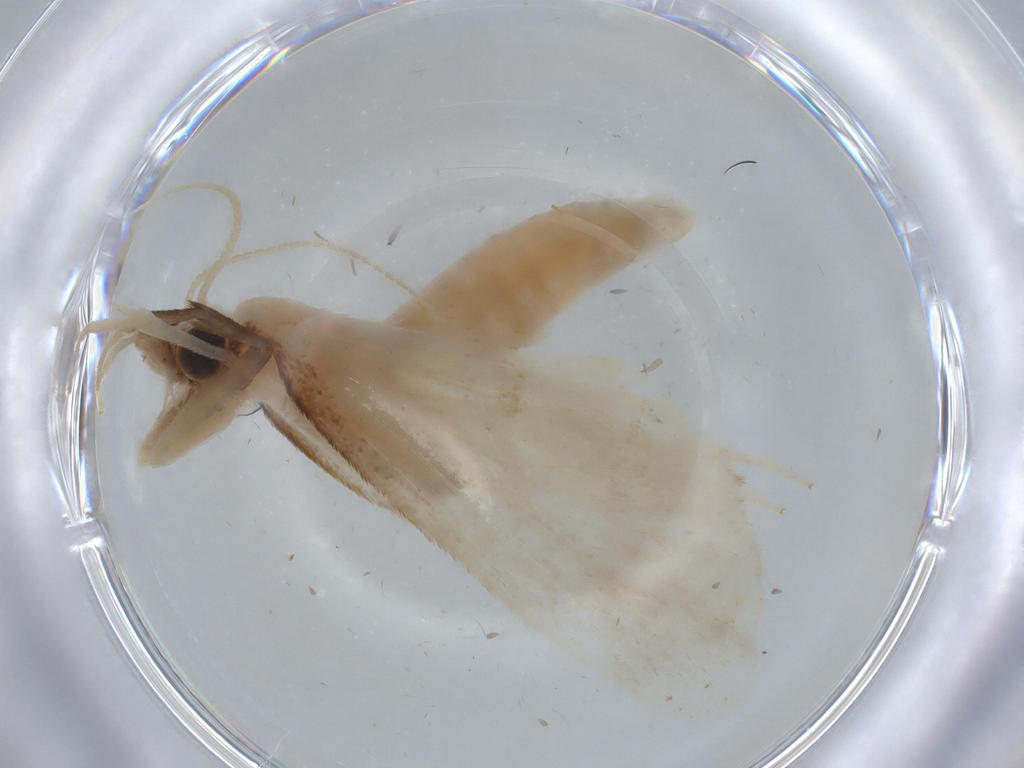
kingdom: Animalia
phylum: Arthropoda
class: Insecta
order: Lepidoptera
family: Crambidae
